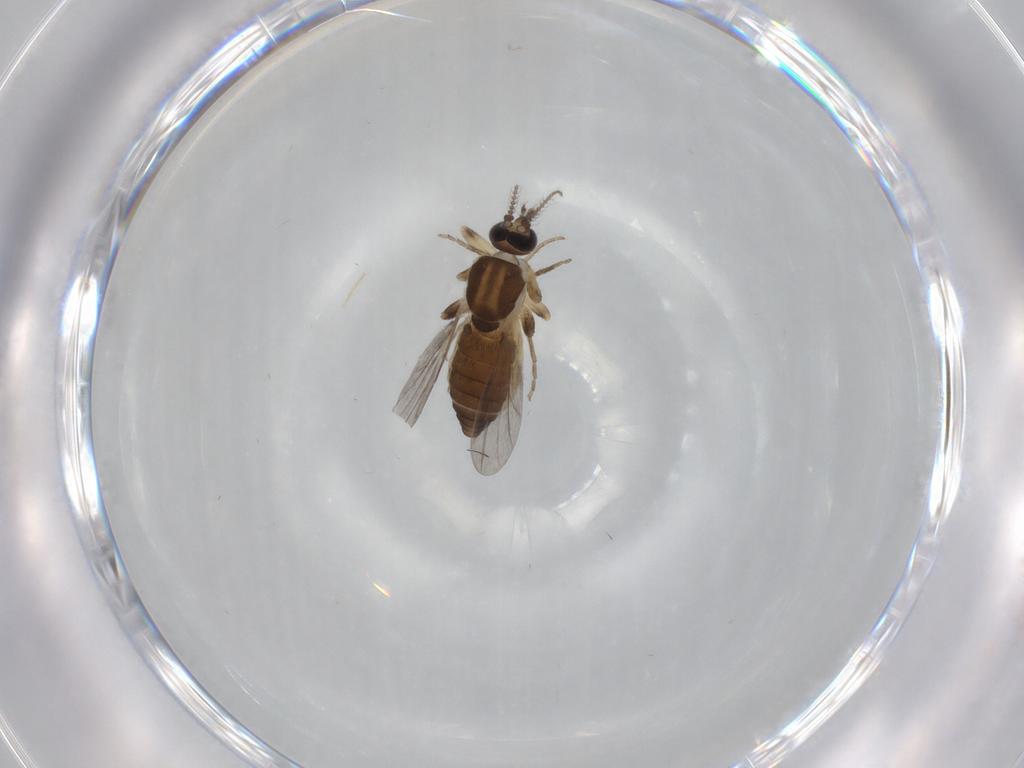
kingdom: Animalia
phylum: Arthropoda
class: Insecta
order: Diptera
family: Ceratopogonidae
